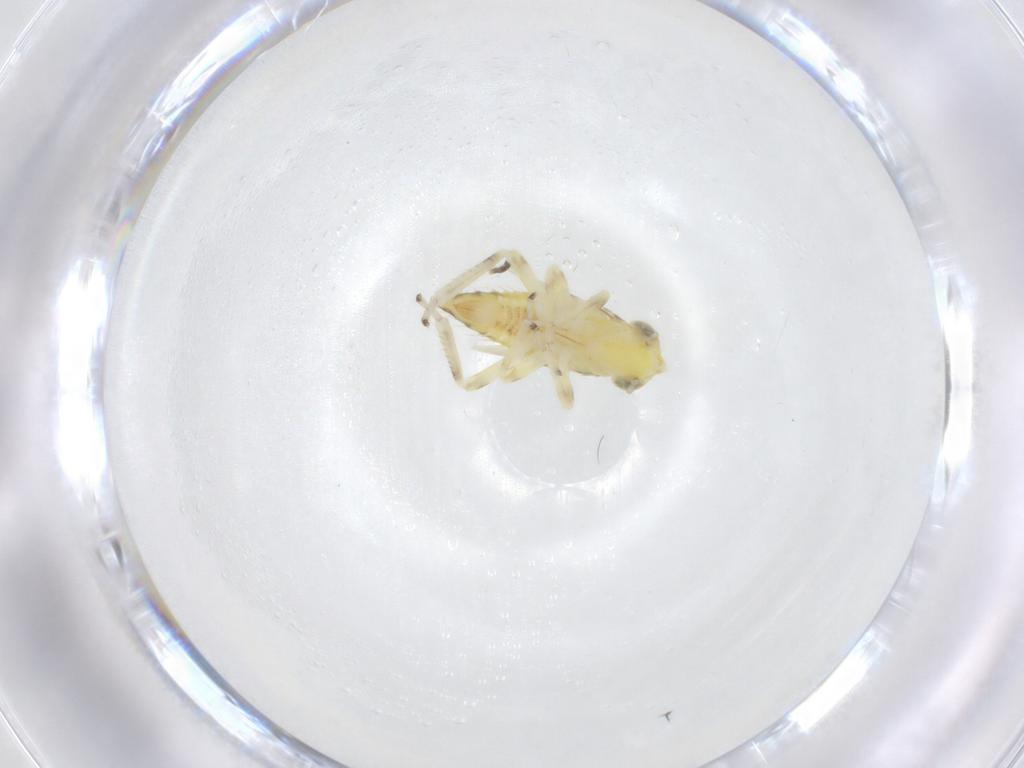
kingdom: Animalia
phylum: Arthropoda
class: Insecta
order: Hemiptera
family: Cicadellidae
